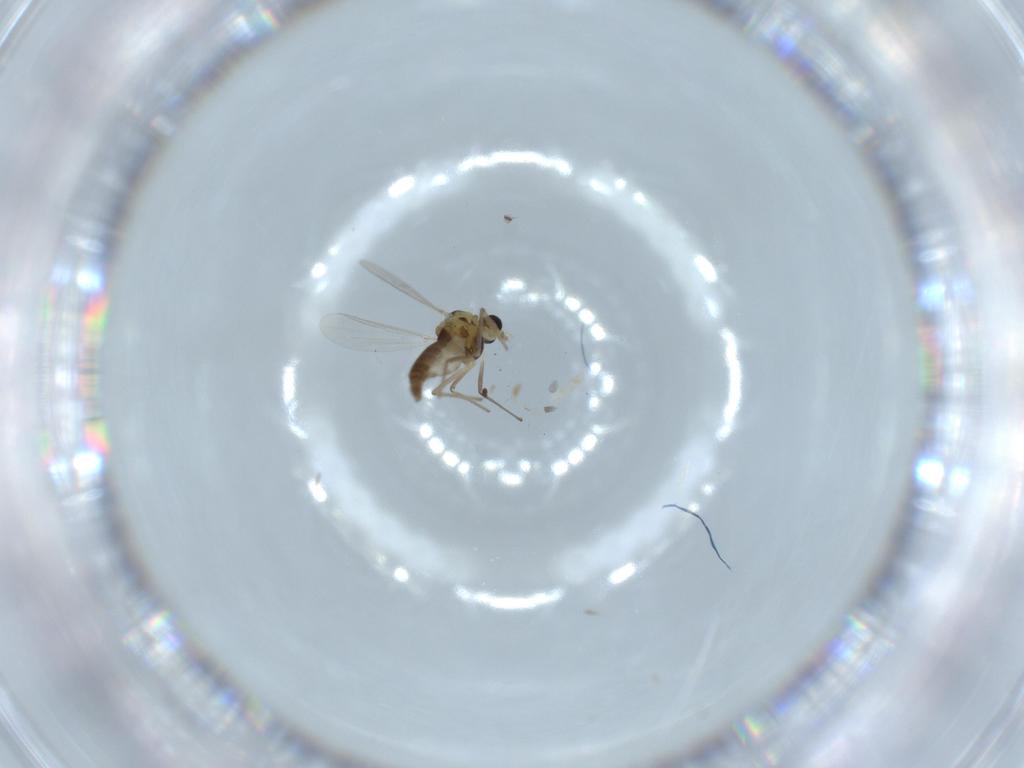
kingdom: Animalia
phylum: Arthropoda
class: Insecta
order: Diptera
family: Chironomidae
